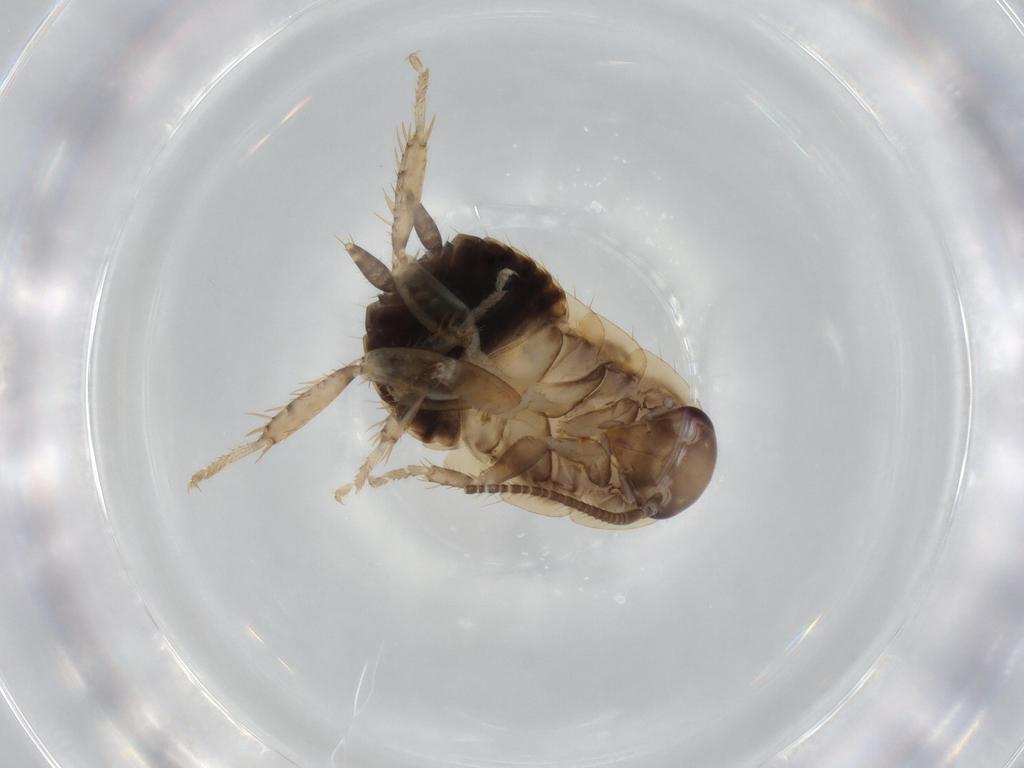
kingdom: Animalia
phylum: Arthropoda
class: Insecta
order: Blattodea
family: Ectobiidae
